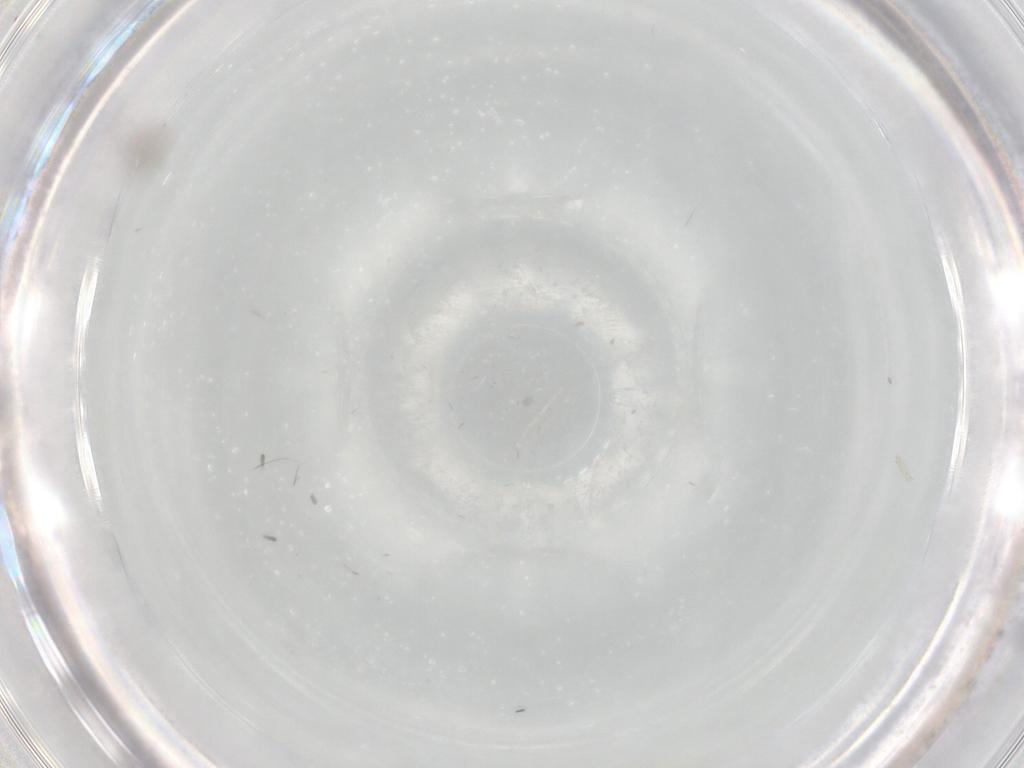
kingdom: Animalia
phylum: Arthropoda
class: Insecta
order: Diptera
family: Cecidomyiidae
